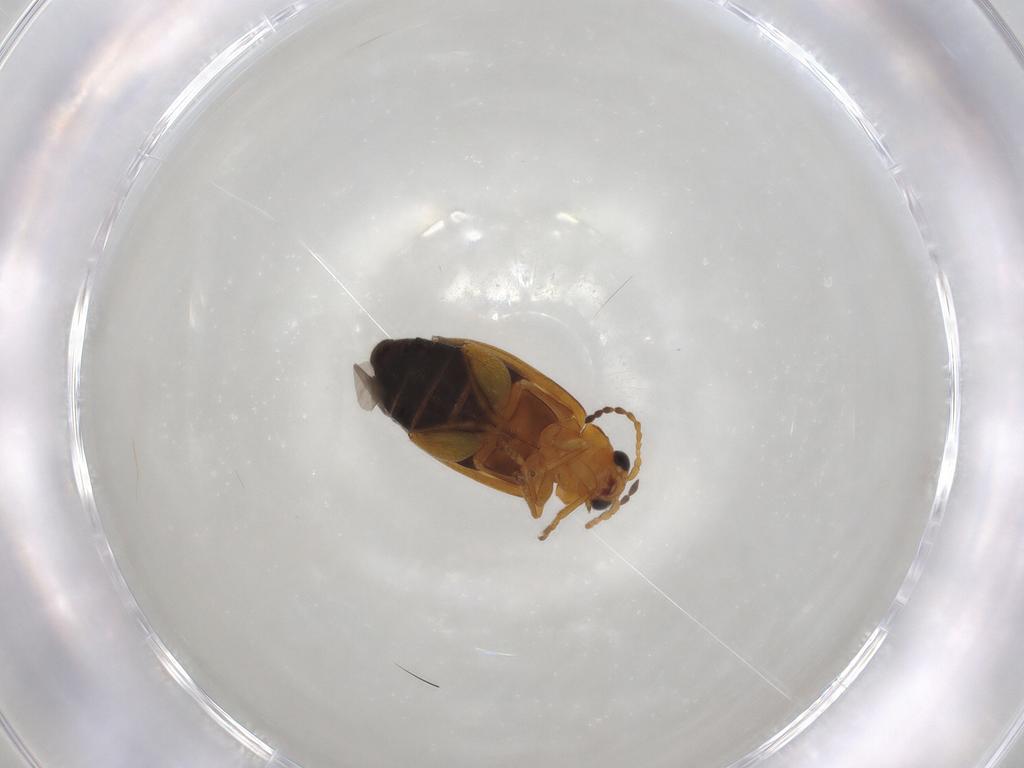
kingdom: Animalia
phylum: Arthropoda
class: Insecta
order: Coleoptera
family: Chrysomelidae
